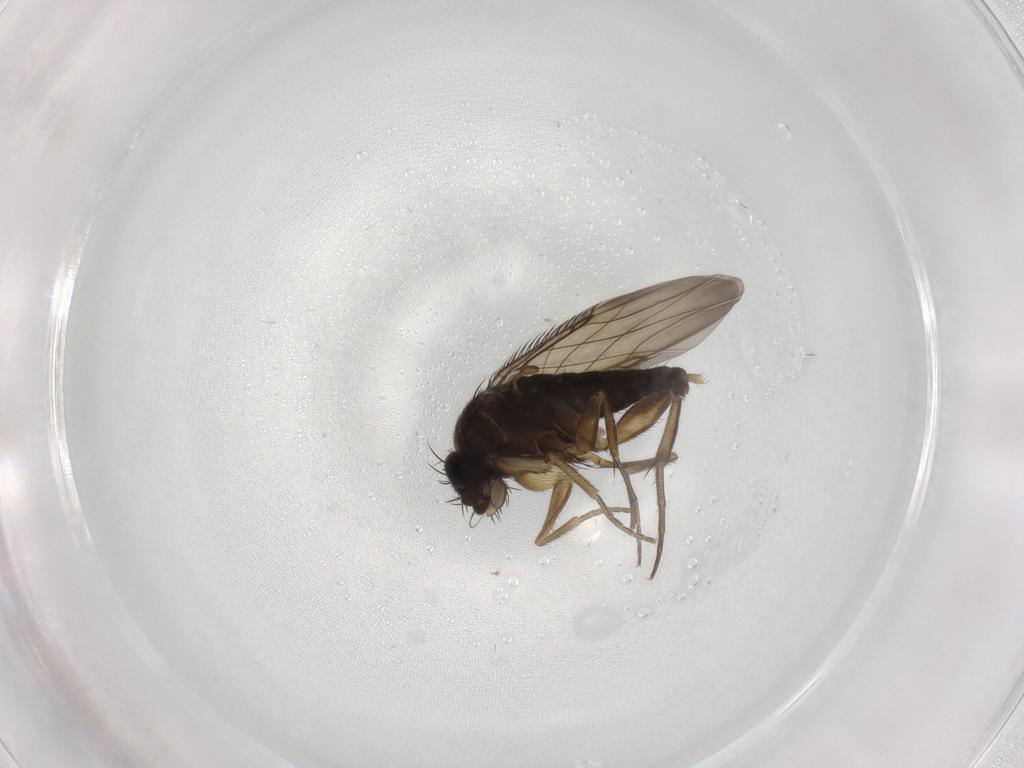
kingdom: Animalia
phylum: Arthropoda
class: Insecta
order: Diptera
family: Phoridae
